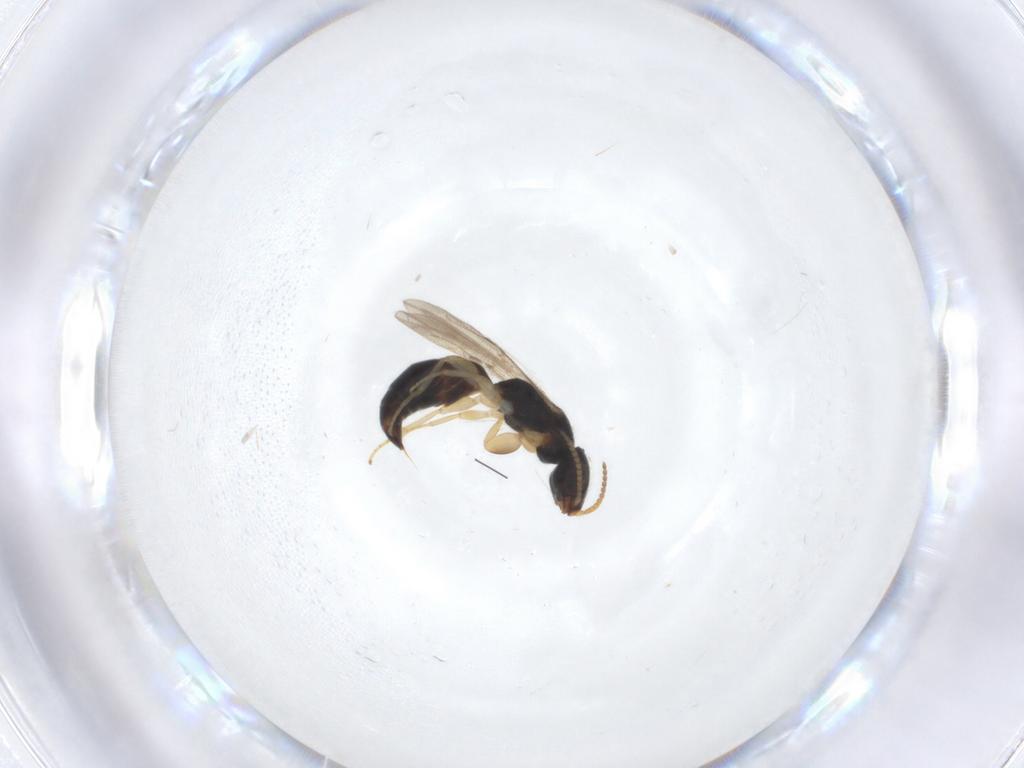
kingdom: Animalia
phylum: Arthropoda
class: Insecta
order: Hymenoptera
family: Bethylidae
